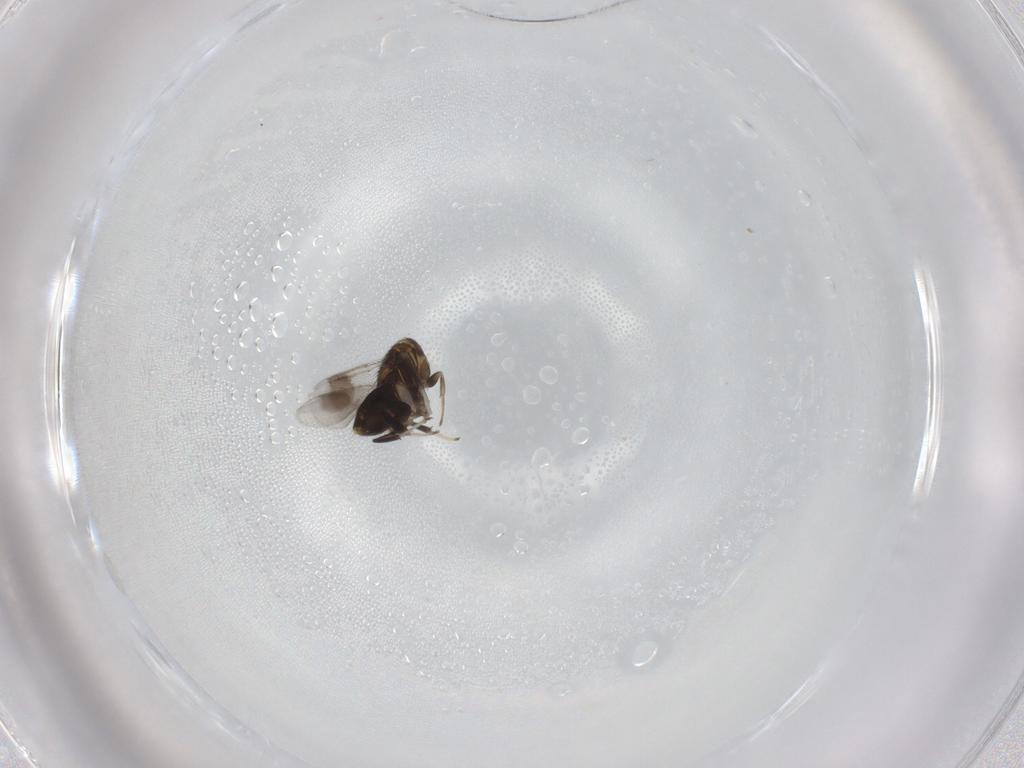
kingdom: Animalia
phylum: Arthropoda
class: Insecta
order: Hymenoptera
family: Aphelinidae
